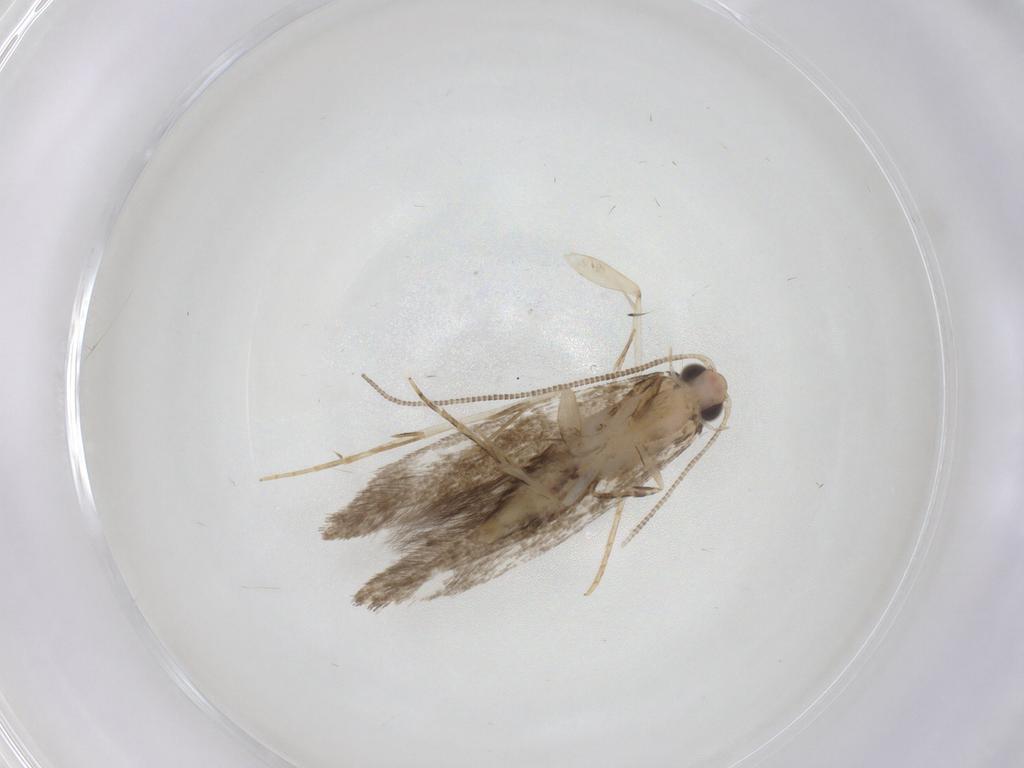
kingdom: Animalia
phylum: Arthropoda
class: Insecta
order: Lepidoptera
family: Tineidae
